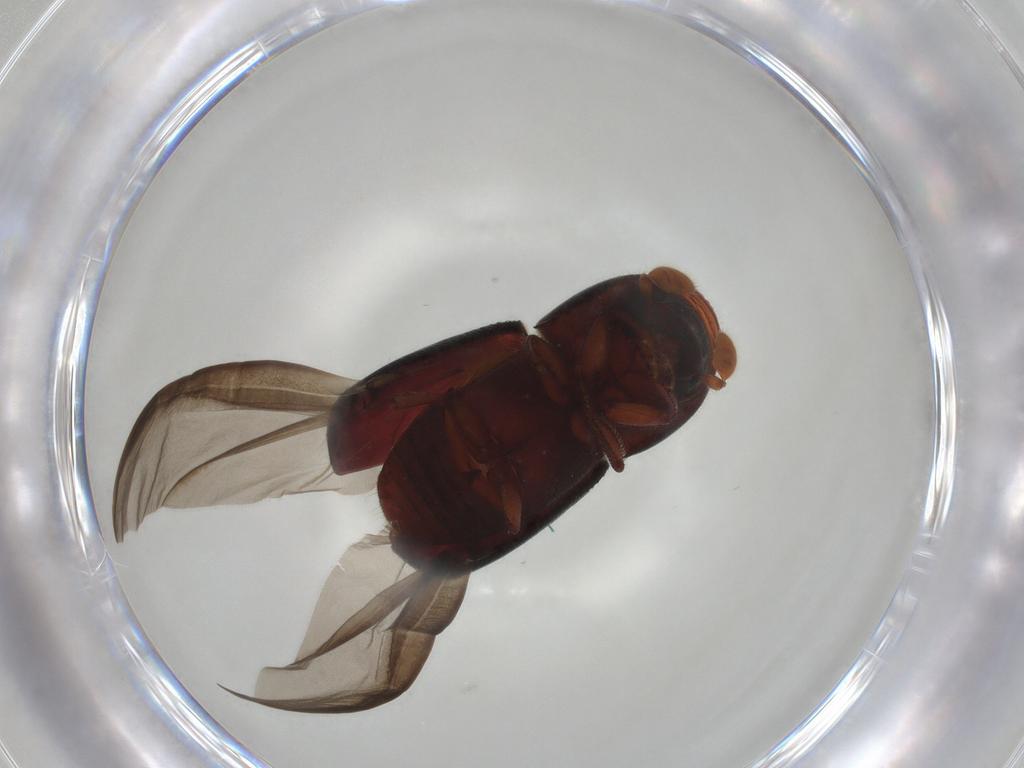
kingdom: Animalia
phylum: Arthropoda
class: Insecta
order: Coleoptera
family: Curculionidae
